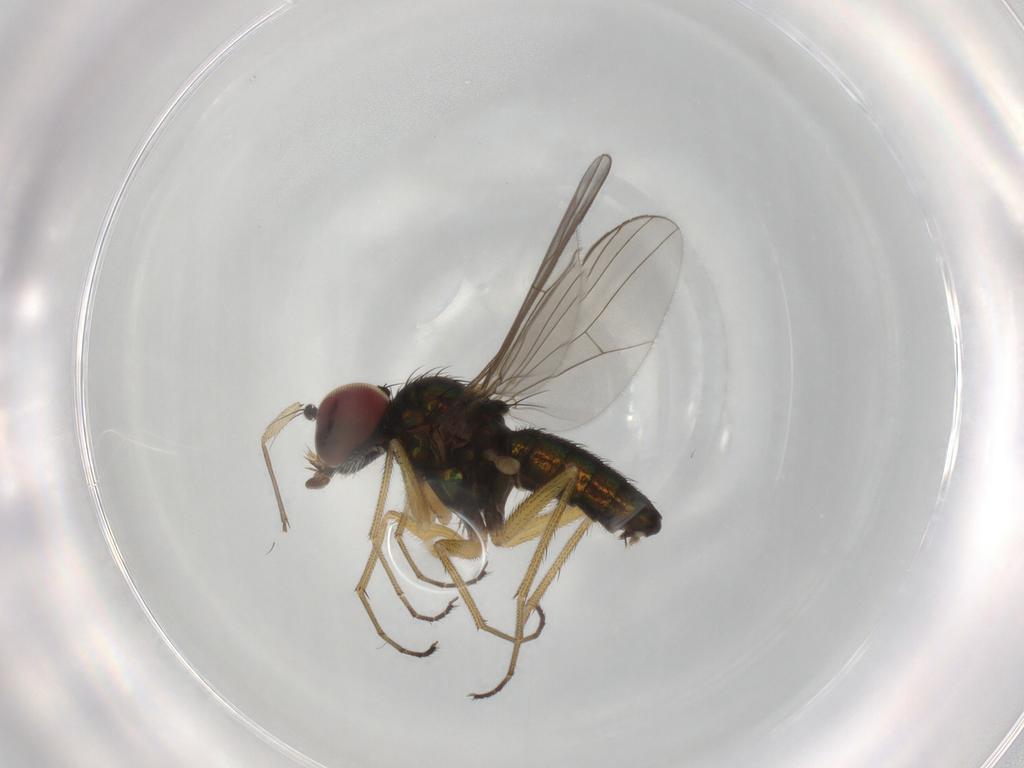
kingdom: Animalia
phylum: Arthropoda
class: Insecta
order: Diptera
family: Dolichopodidae
